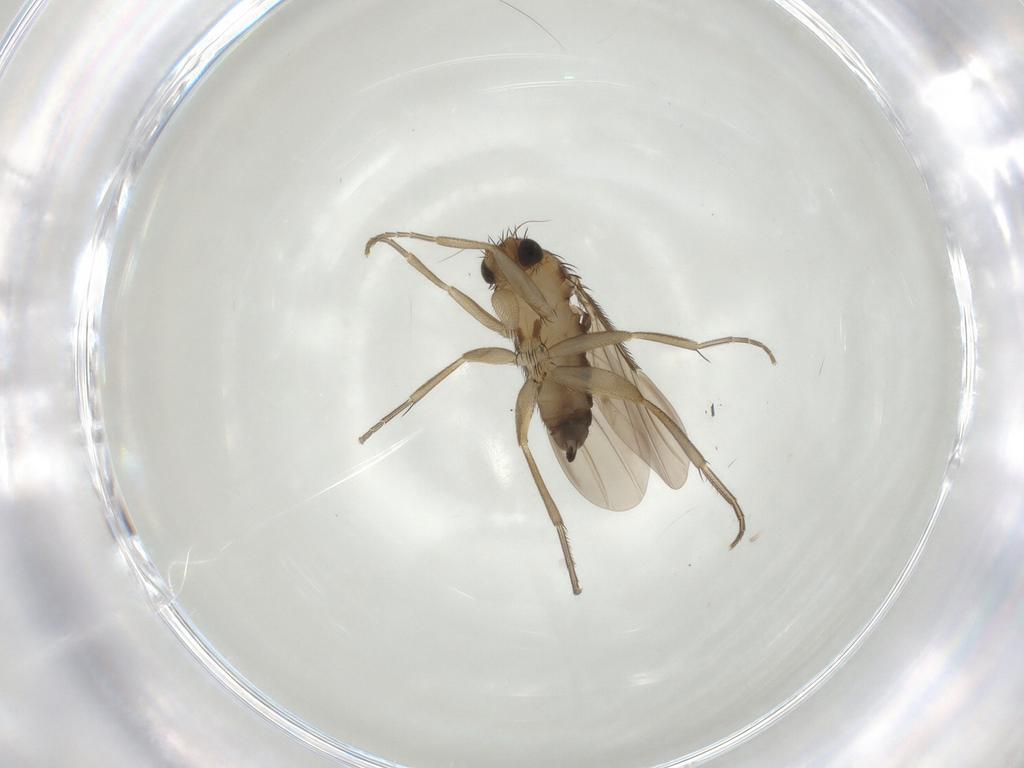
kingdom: Animalia
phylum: Arthropoda
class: Insecta
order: Diptera
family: Phoridae
